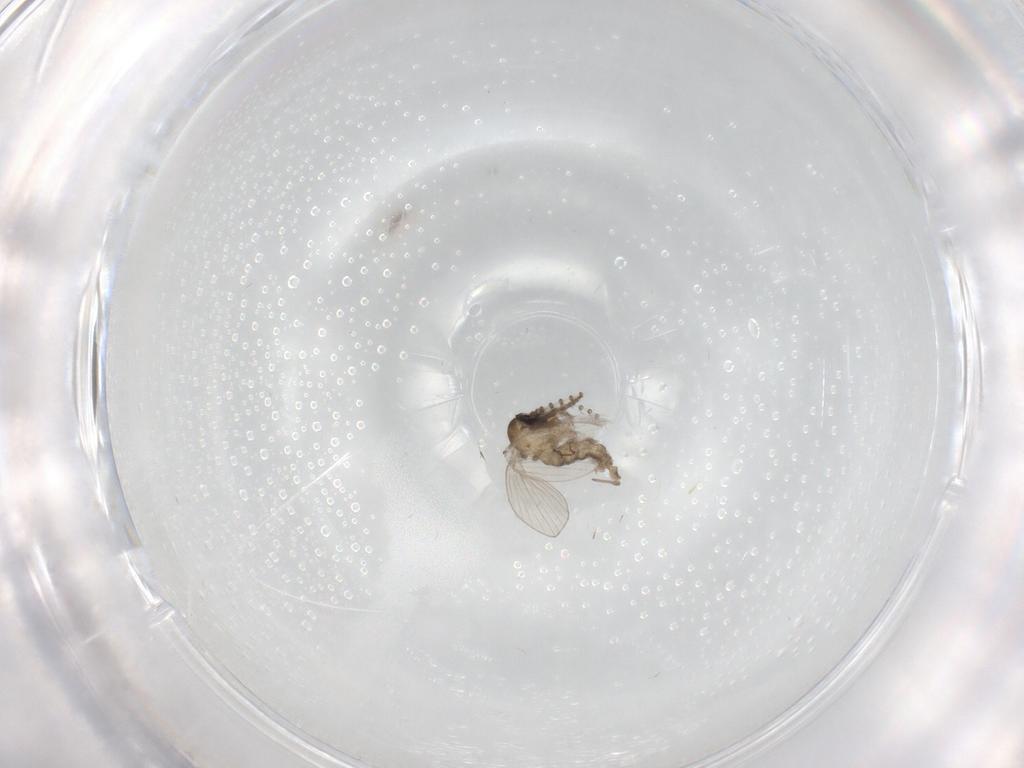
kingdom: Animalia
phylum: Arthropoda
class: Insecta
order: Diptera
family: Psychodidae
